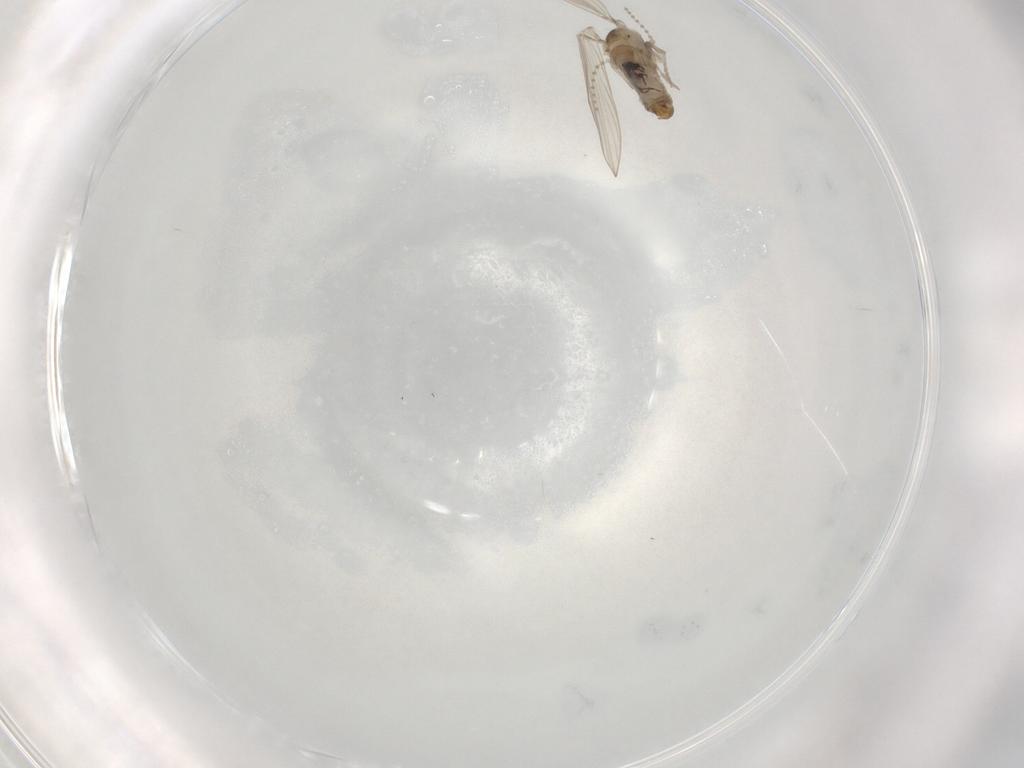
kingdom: Animalia
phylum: Arthropoda
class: Insecta
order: Diptera
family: Psychodidae
